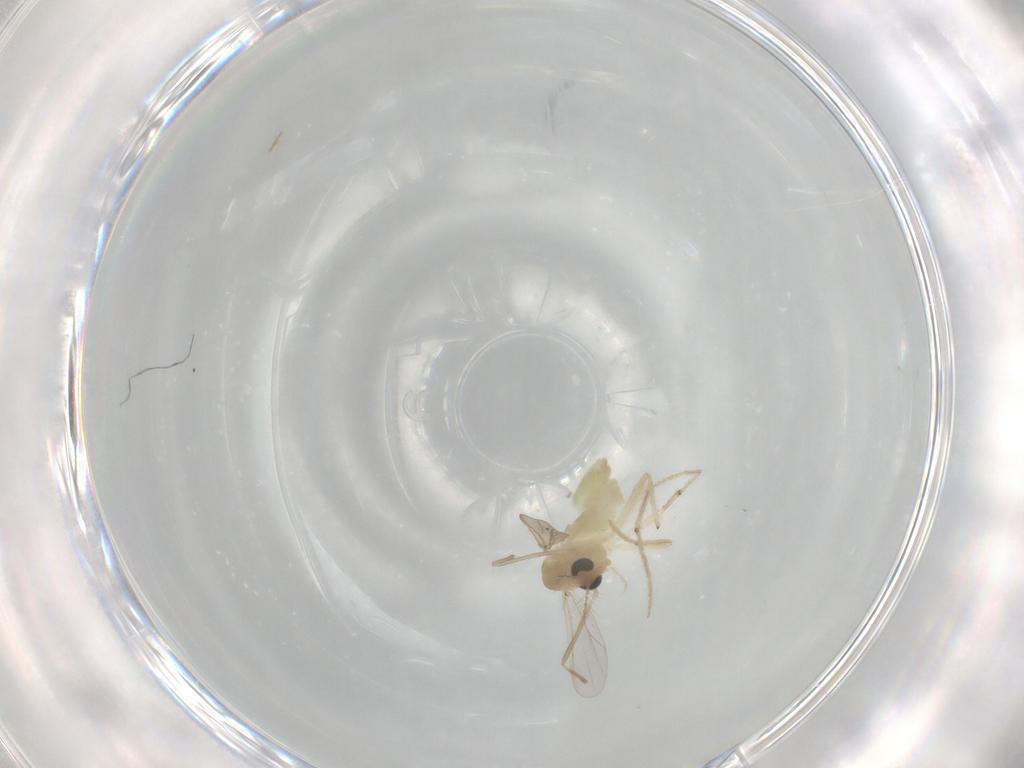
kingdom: Animalia
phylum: Arthropoda
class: Insecta
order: Diptera
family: Chironomidae
